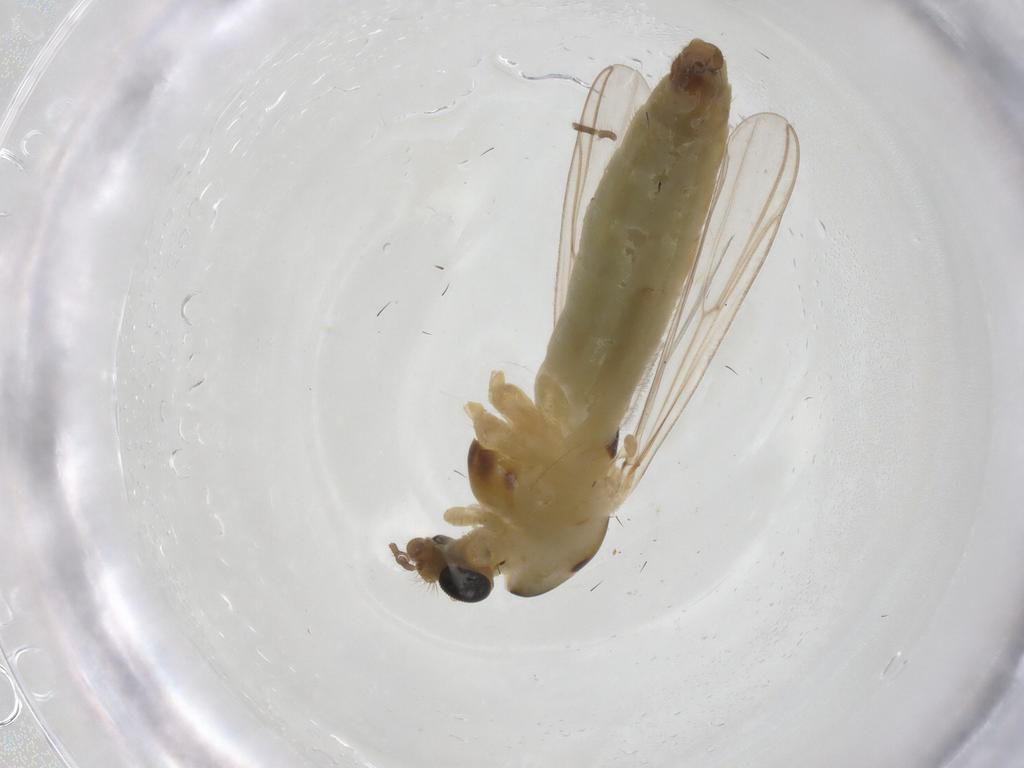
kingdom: Animalia
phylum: Arthropoda
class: Insecta
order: Diptera
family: Chironomidae
